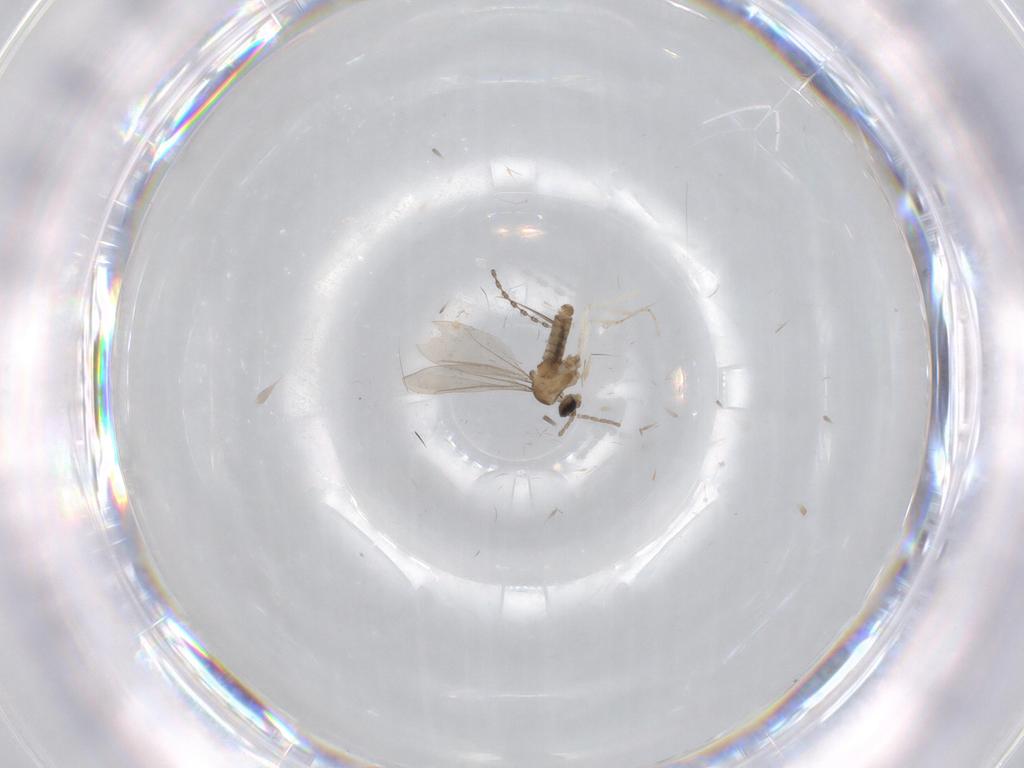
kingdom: Animalia
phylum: Arthropoda
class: Insecta
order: Diptera
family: Cecidomyiidae
